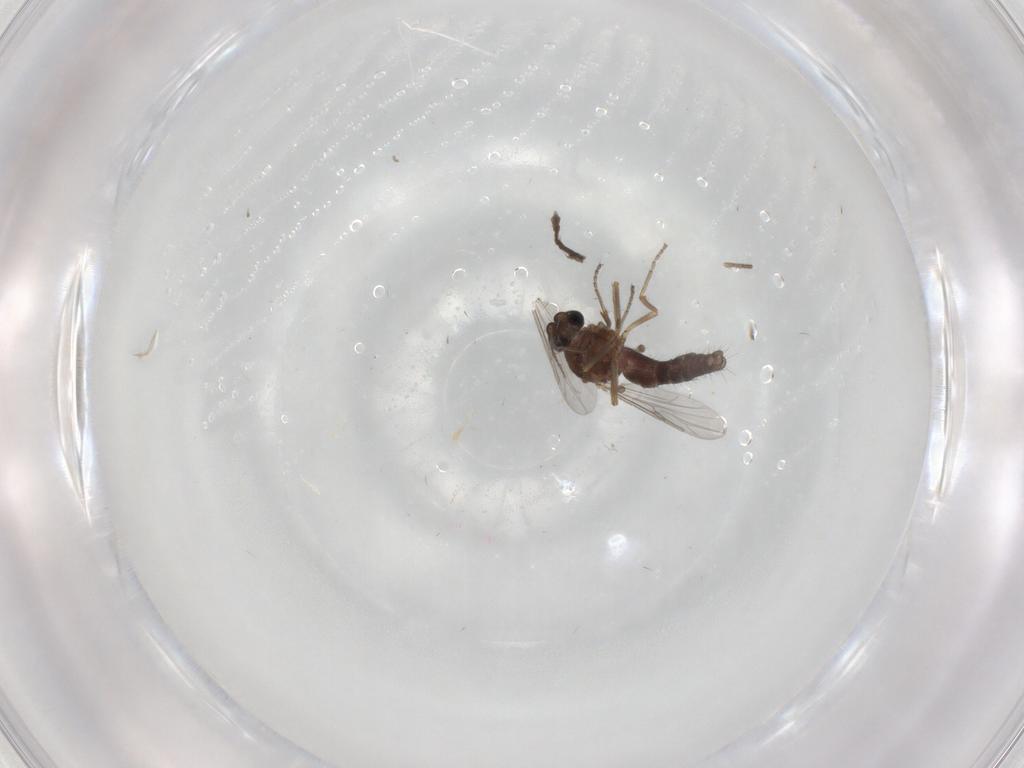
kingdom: Animalia
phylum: Arthropoda
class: Insecta
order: Diptera
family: Ceratopogonidae
